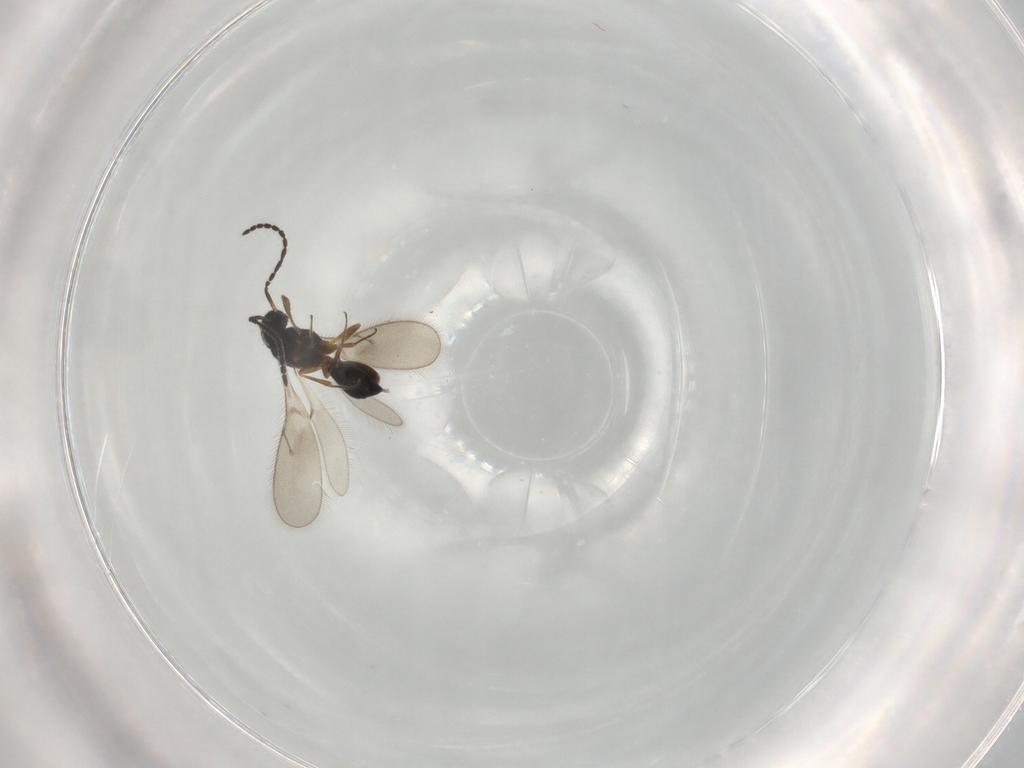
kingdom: Animalia
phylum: Arthropoda
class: Insecta
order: Hymenoptera
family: Scelionidae
